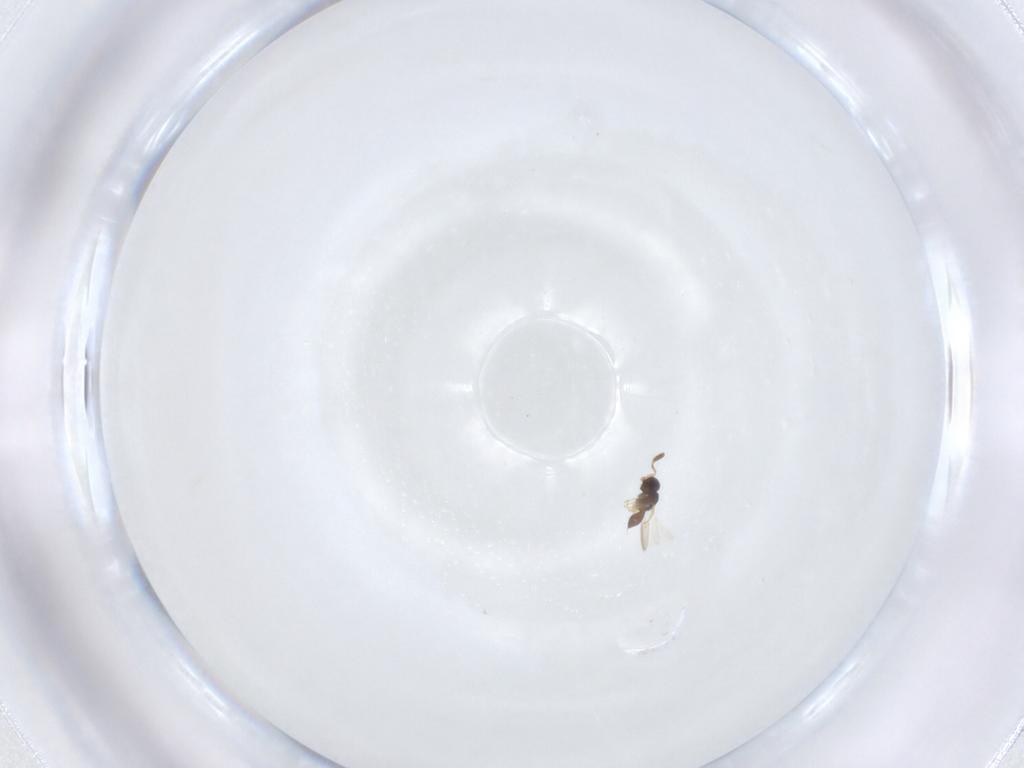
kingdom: Animalia
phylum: Arthropoda
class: Insecta
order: Hymenoptera
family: Scelionidae
